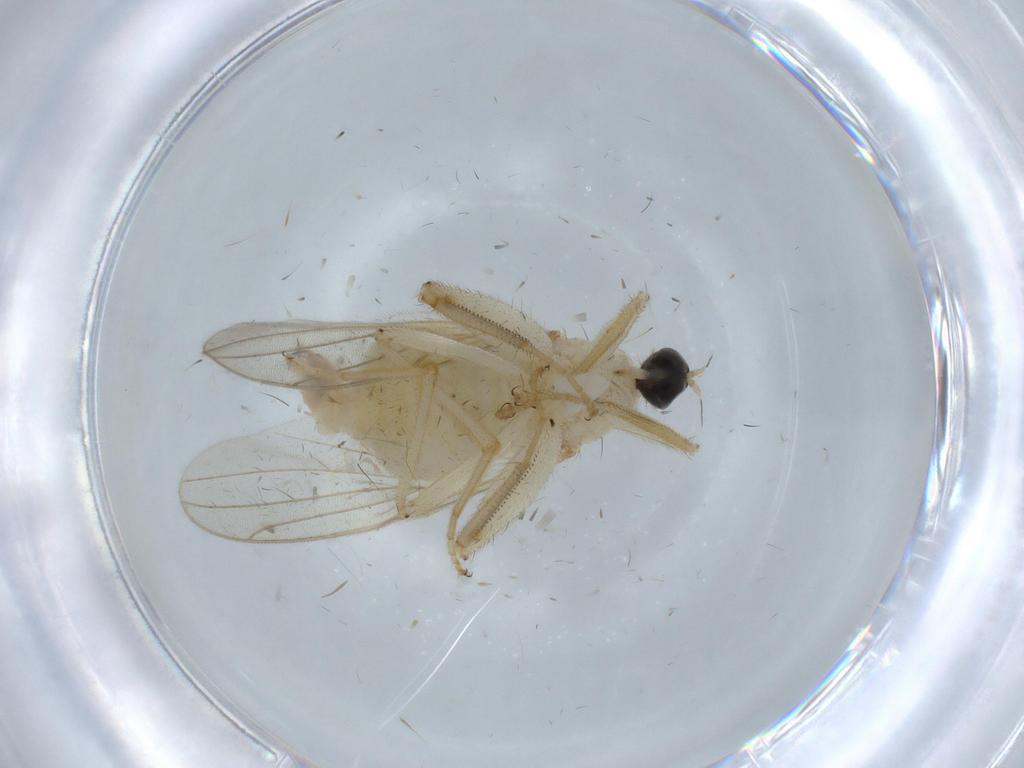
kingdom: Animalia
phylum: Arthropoda
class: Insecta
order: Diptera
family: Hybotidae
